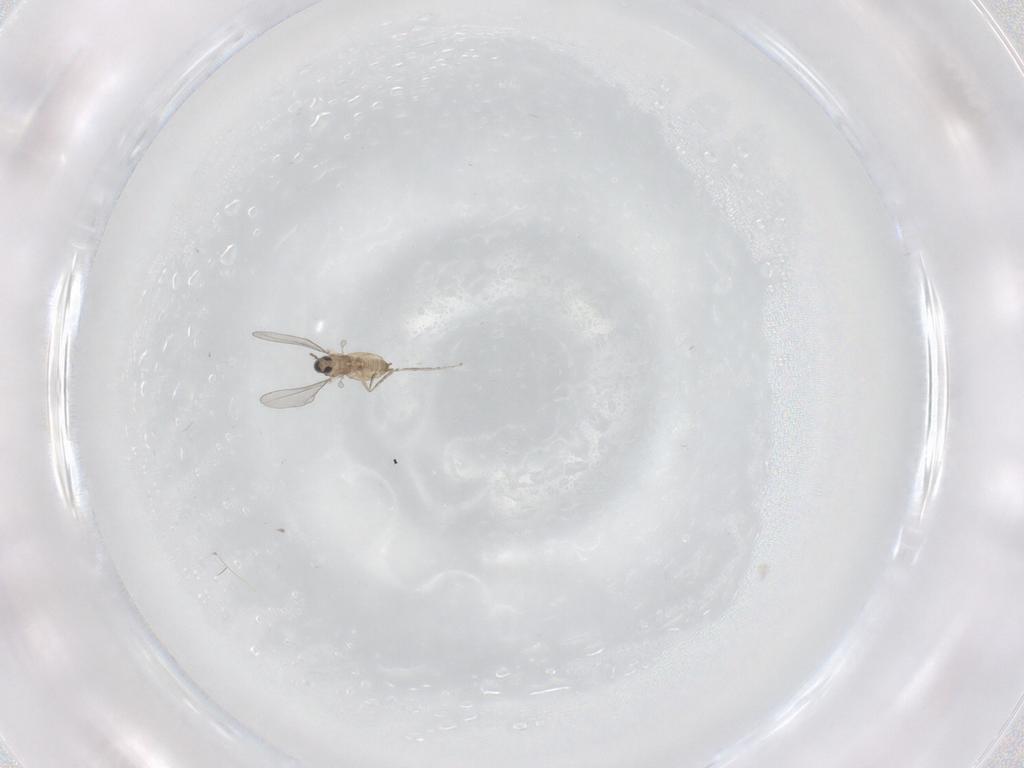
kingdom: Animalia
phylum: Arthropoda
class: Insecta
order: Diptera
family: Cecidomyiidae
